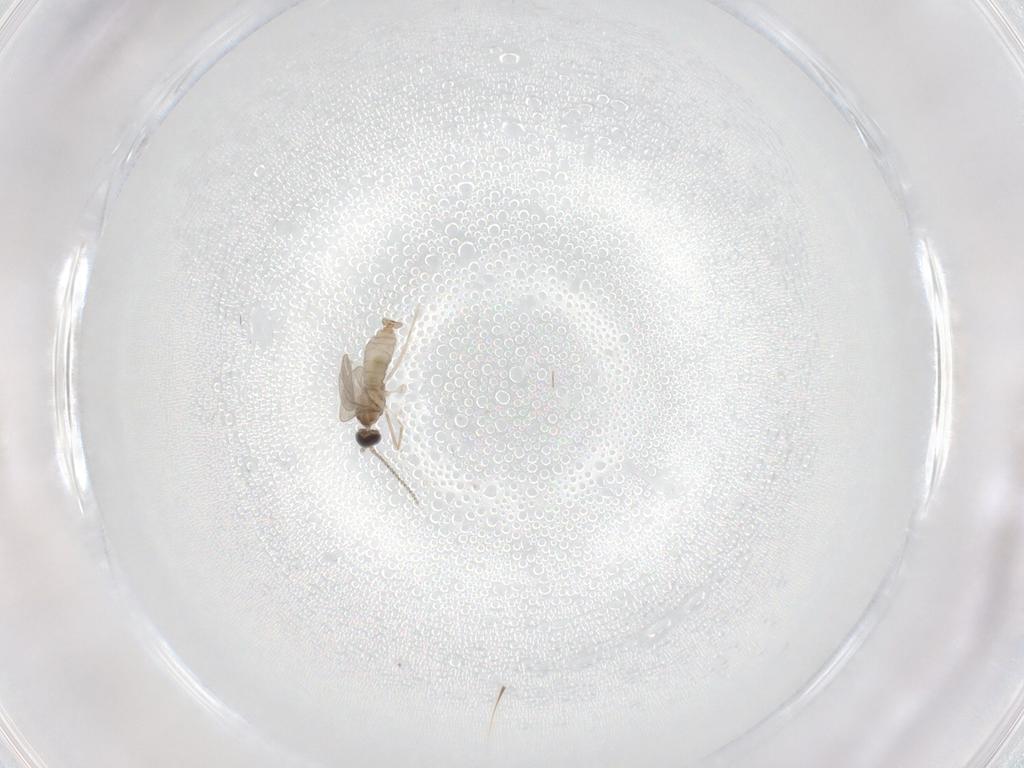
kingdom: Animalia
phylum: Arthropoda
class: Insecta
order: Diptera
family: Cecidomyiidae
